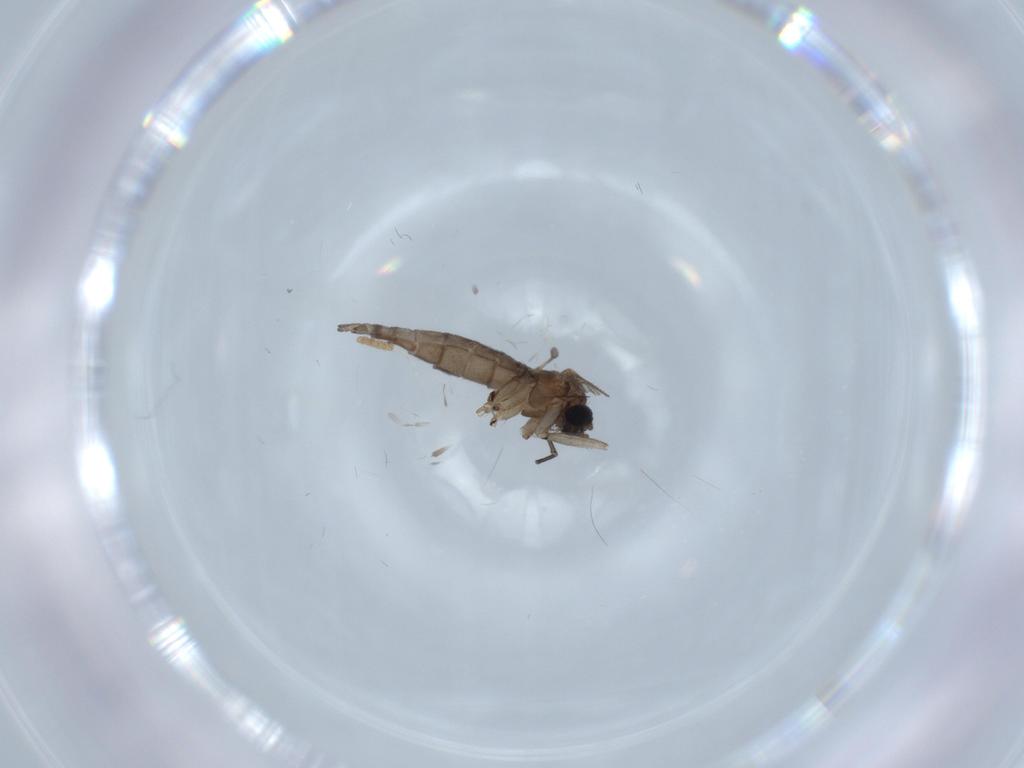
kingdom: Animalia
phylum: Arthropoda
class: Insecta
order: Diptera
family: Sciaridae
